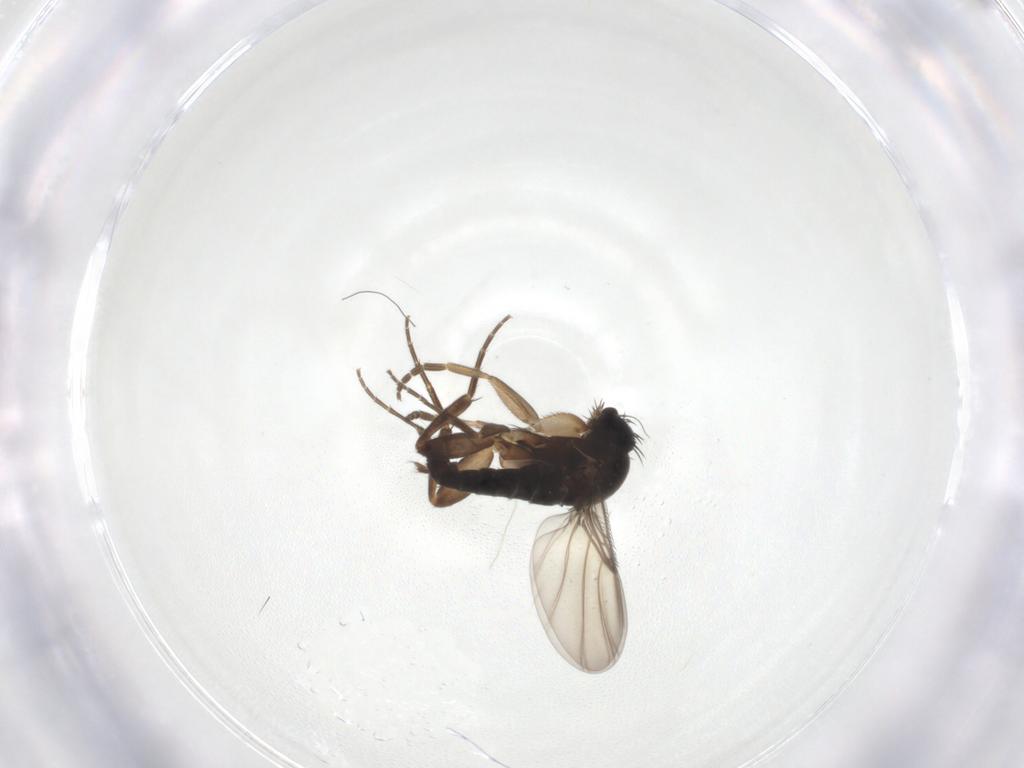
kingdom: Animalia
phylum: Arthropoda
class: Insecta
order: Diptera
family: Phoridae
